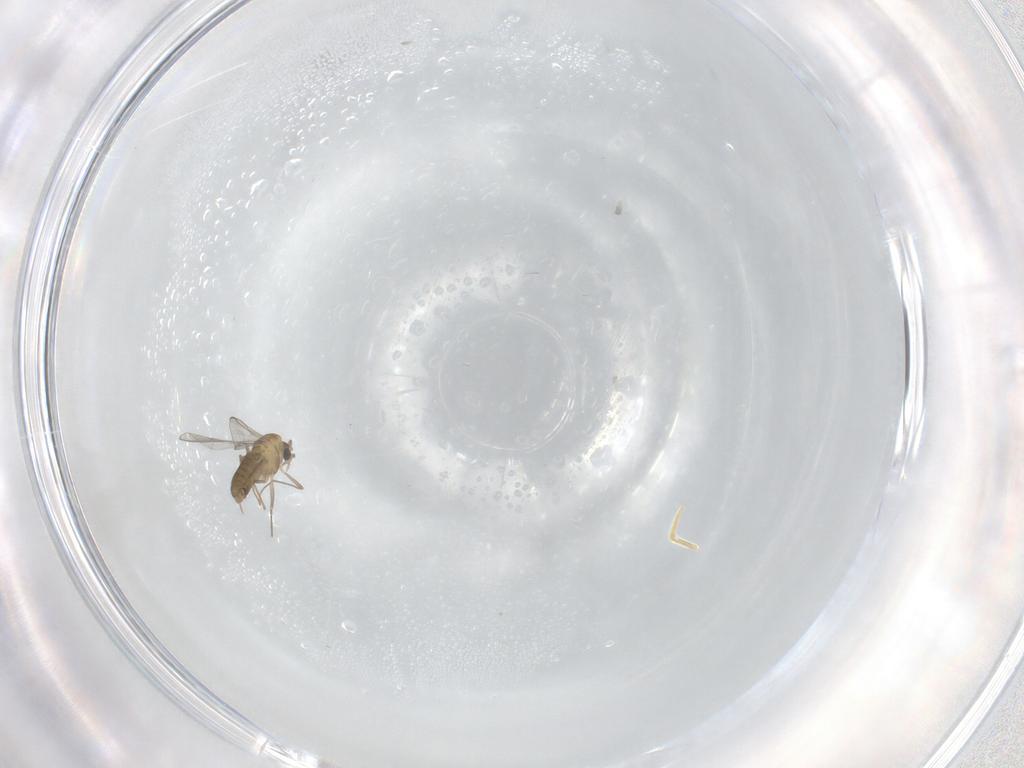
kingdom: Animalia
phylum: Arthropoda
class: Insecta
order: Diptera
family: Chironomidae
